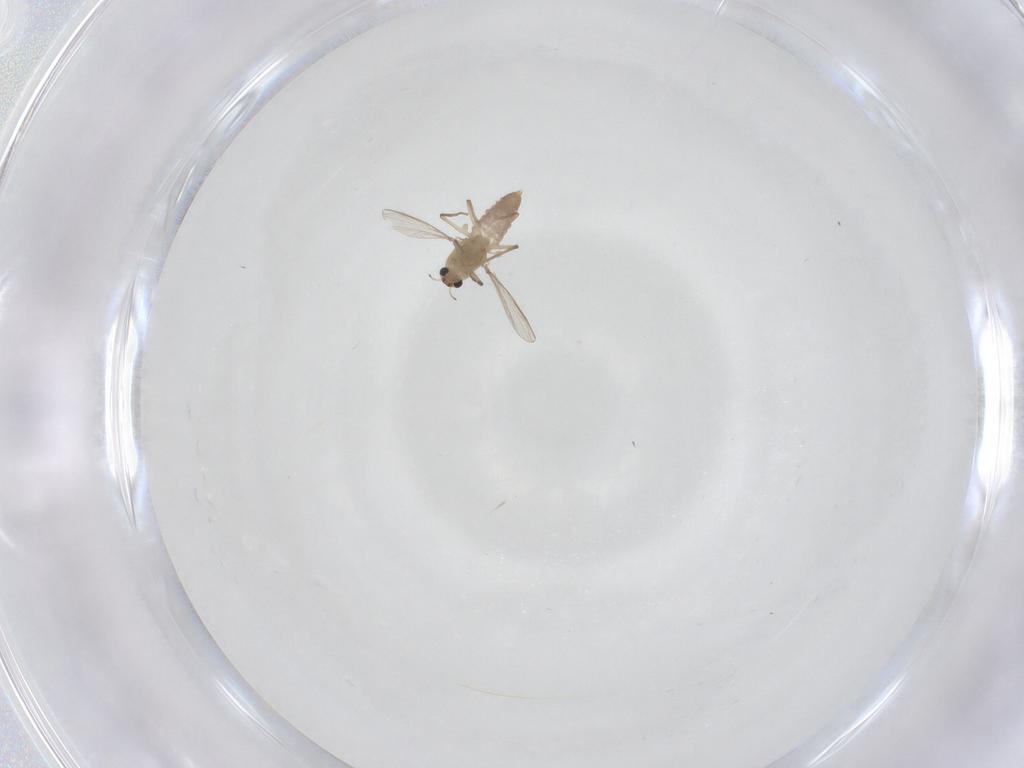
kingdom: Animalia
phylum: Arthropoda
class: Insecta
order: Diptera
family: Chironomidae
